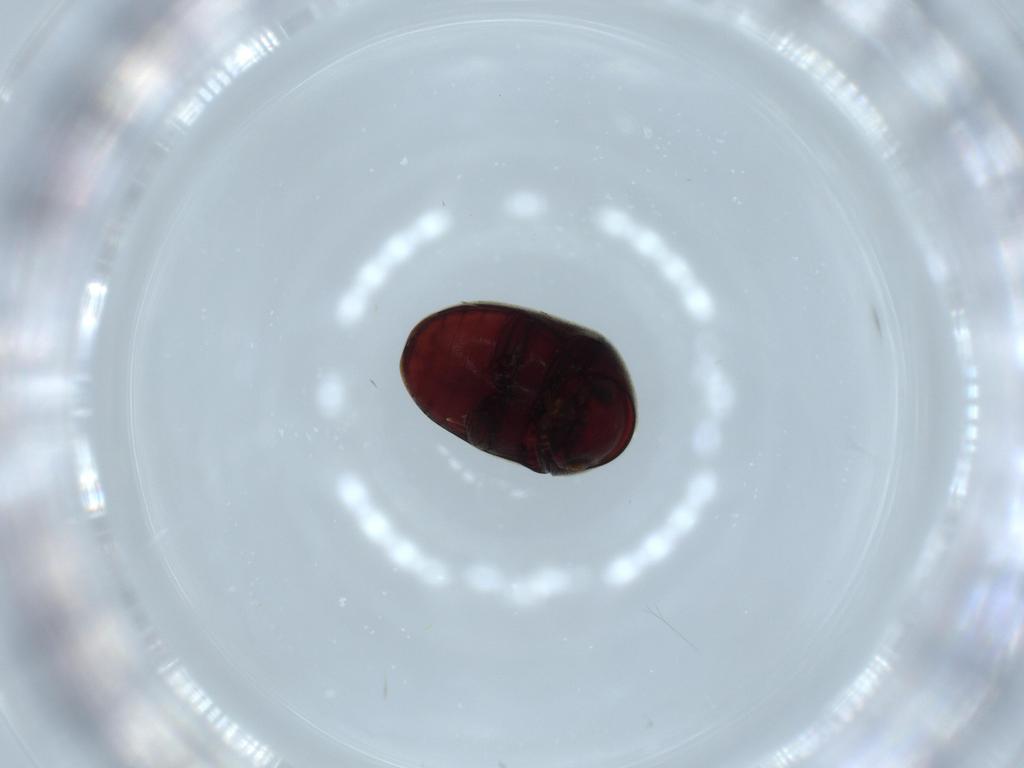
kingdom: Animalia
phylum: Arthropoda
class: Insecta
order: Coleoptera
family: Ptinidae
